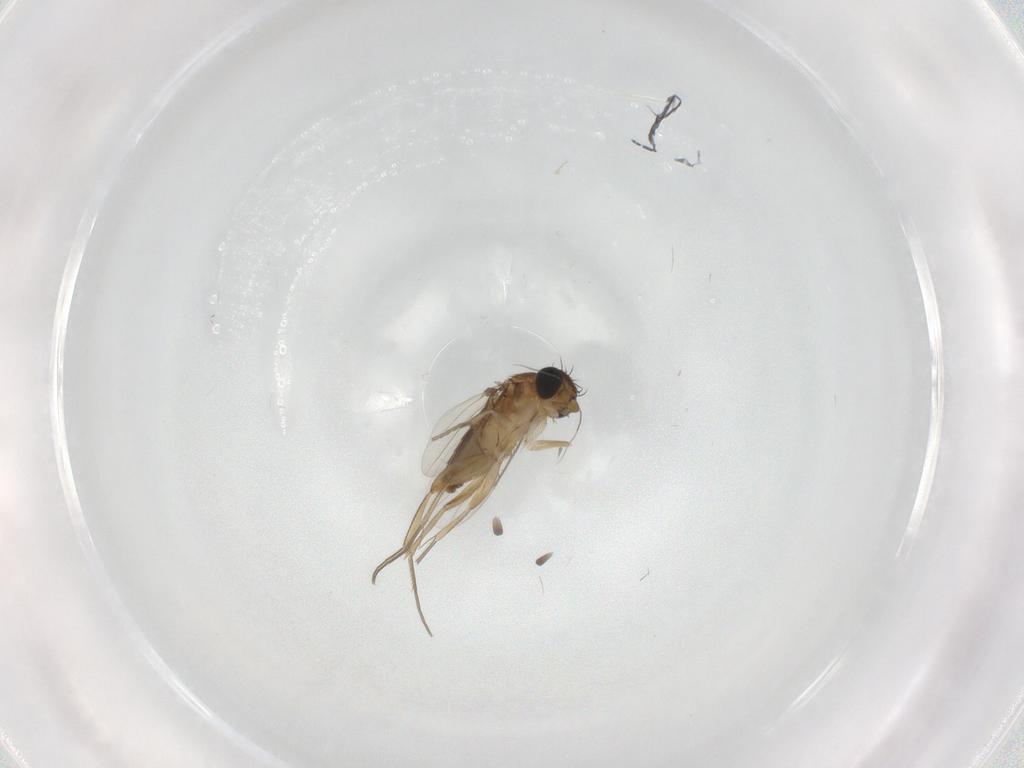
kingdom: Animalia
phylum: Arthropoda
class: Insecta
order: Diptera
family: Phoridae
